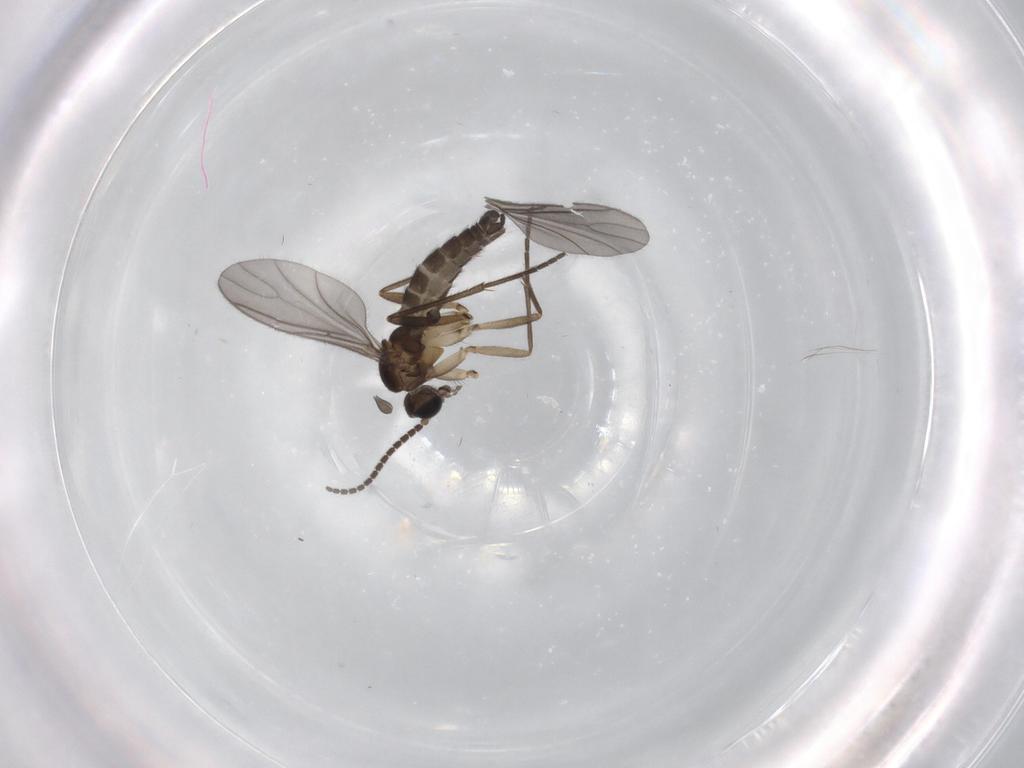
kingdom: Animalia
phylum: Arthropoda
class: Insecta
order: Diptera
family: Sciaridae
